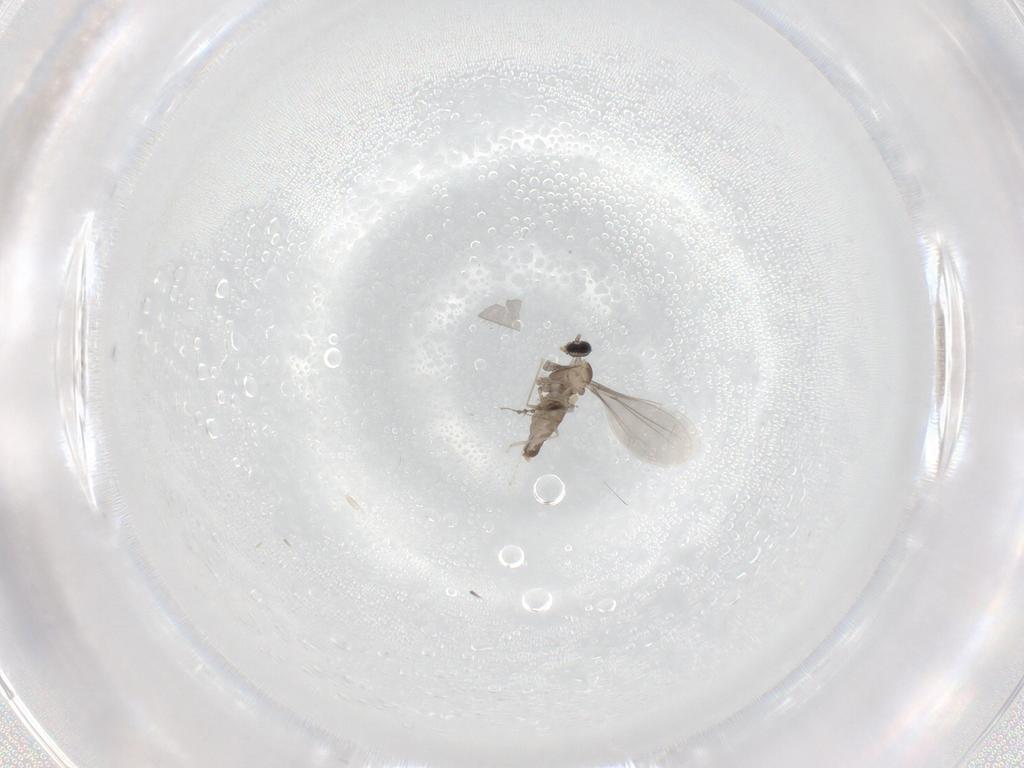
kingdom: Animalia
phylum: Arthropoda
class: Insecta
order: Diptera
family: Cecidomyiidae
